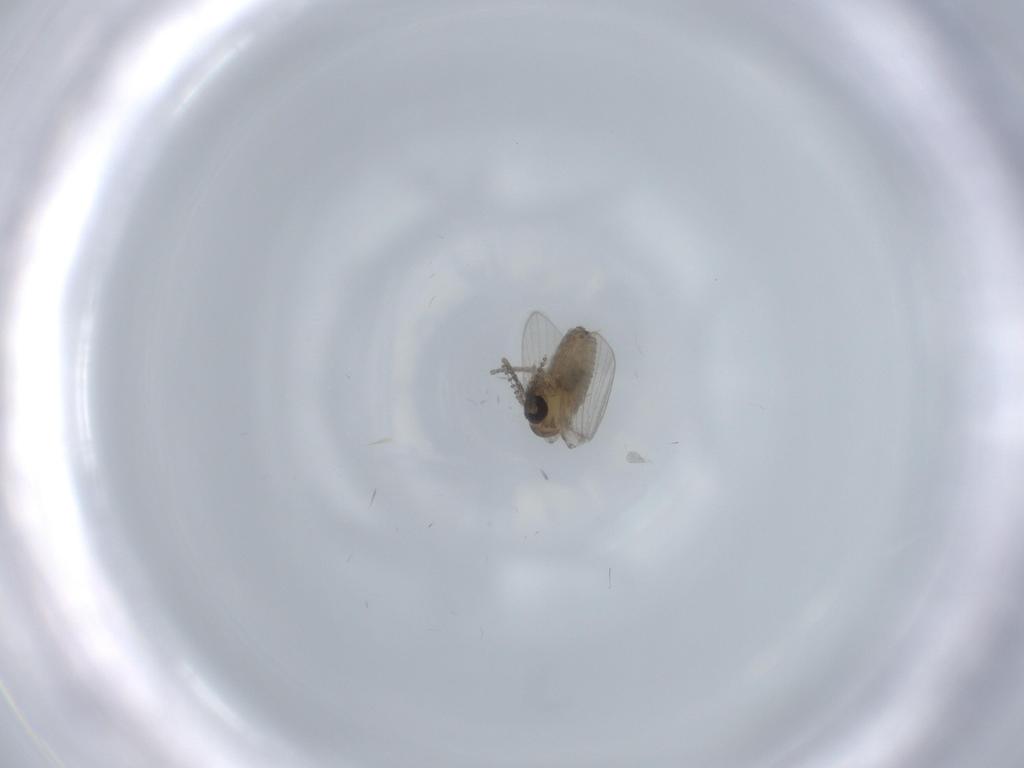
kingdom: Animalia
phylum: Arthropoda
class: Insecta
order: Diptera
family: Psychodidae
